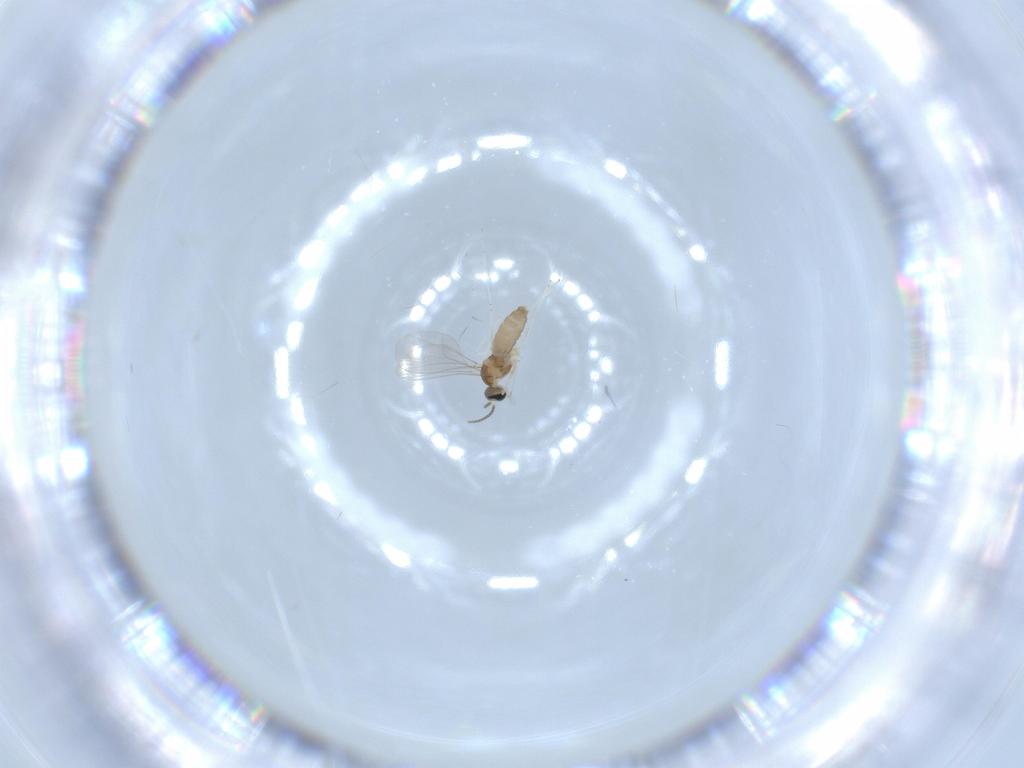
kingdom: Animalia
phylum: Arthropoda
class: Insecta
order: Diptera
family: Cecidomyiidae
